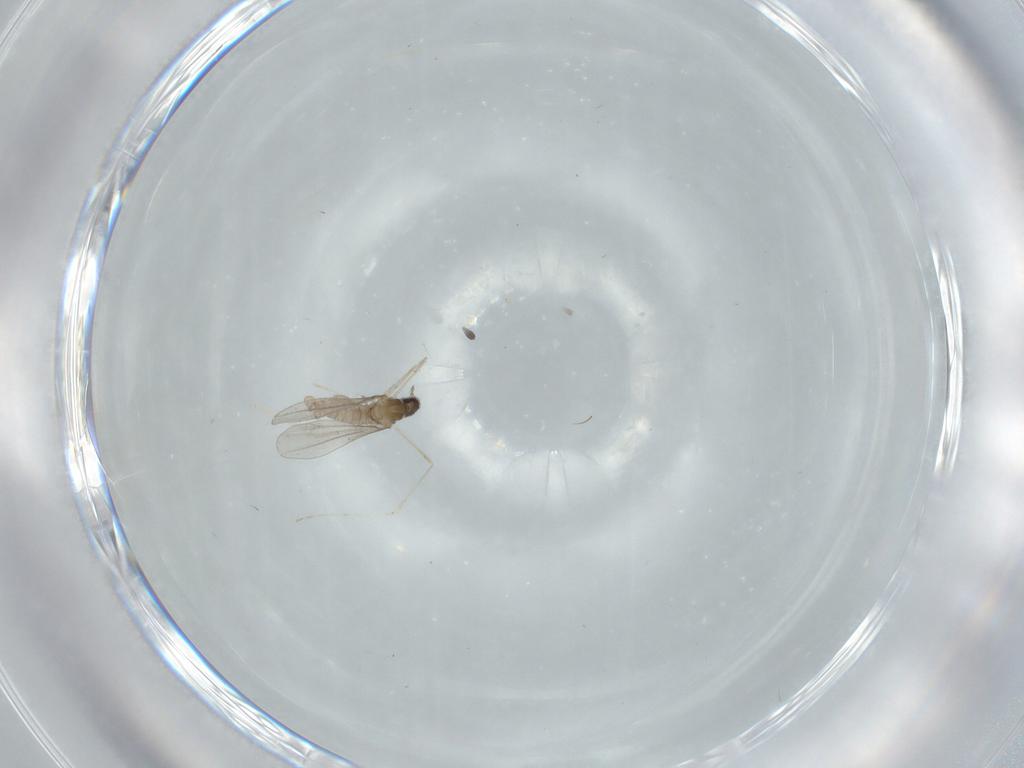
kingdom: Animalia
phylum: Arthropoda
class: Insecta
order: Diptera
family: Cecidomyiidae
